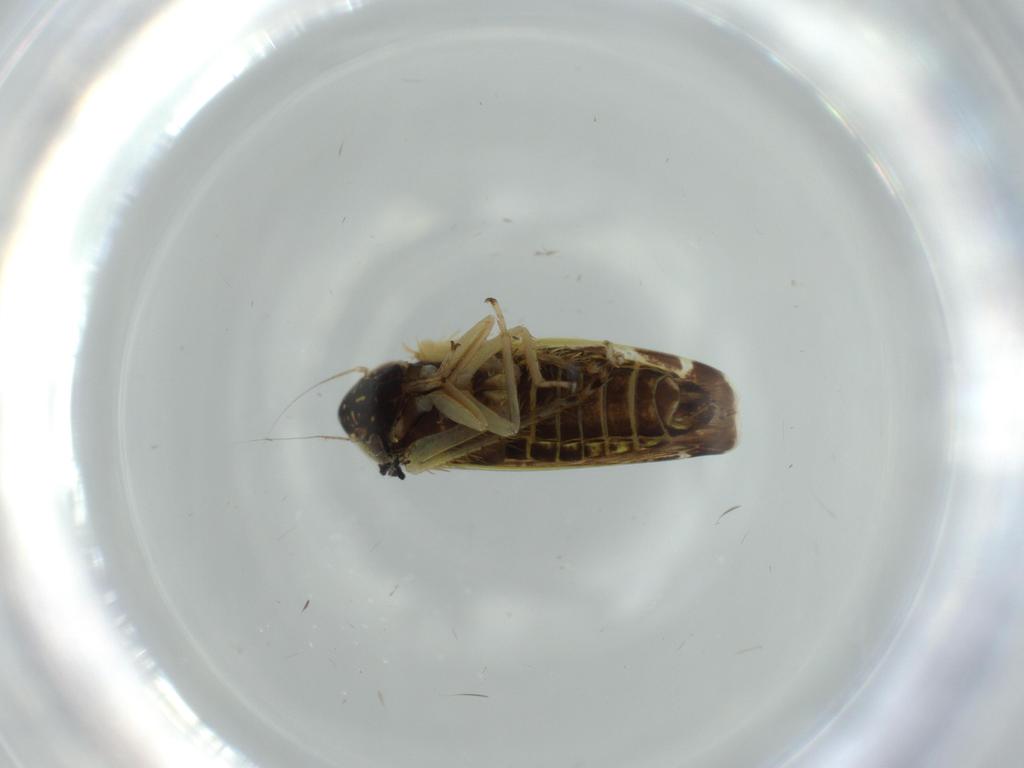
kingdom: Animalia
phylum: Arthropoda
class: Insecta
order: Hemiptera
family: Cicadellidae
